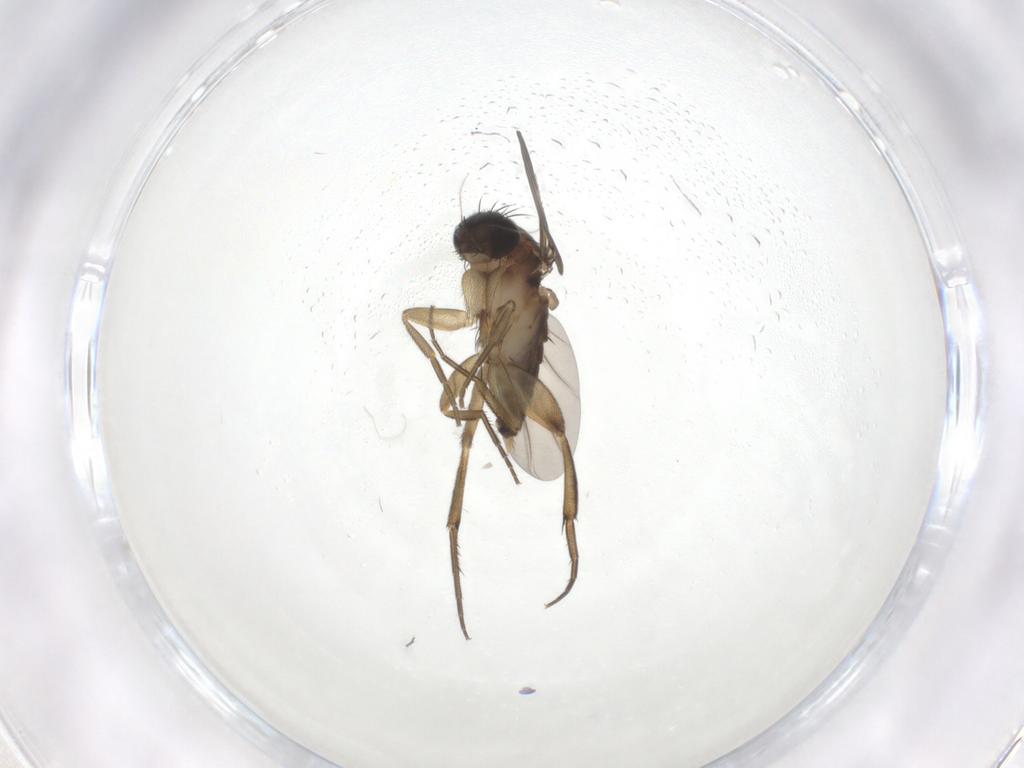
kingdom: Animalia
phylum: Arthropoda
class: Insecta
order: Diptera
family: Phoridae
